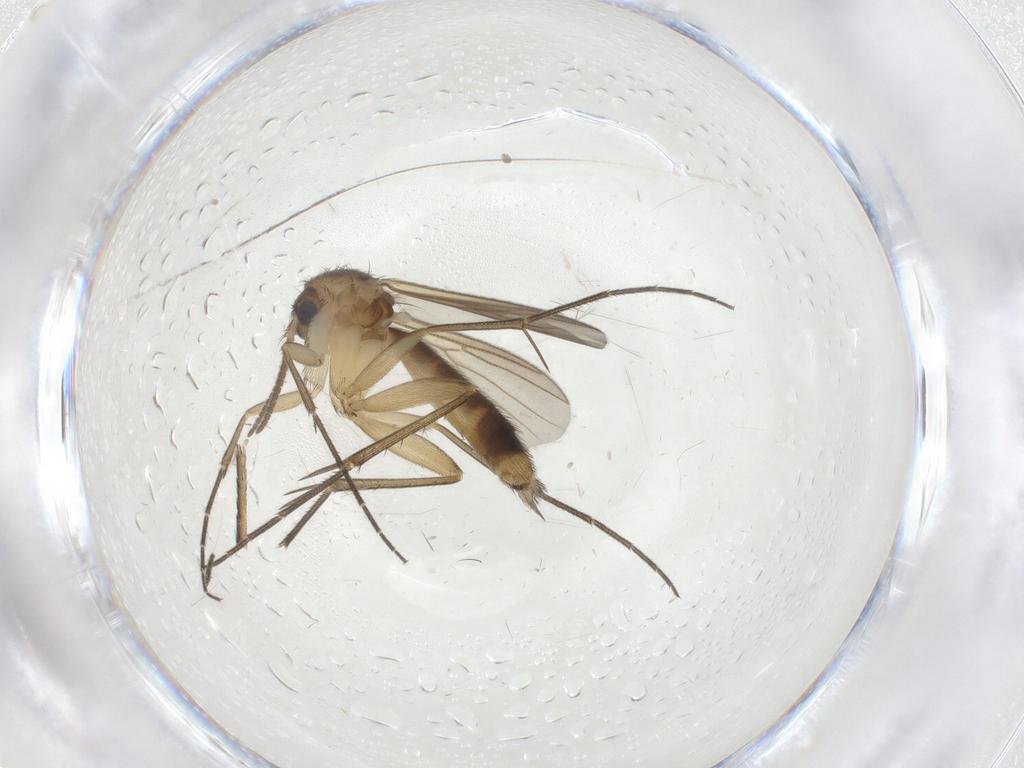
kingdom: Animalia
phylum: Arthropoda
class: Insecta
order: Diptera
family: Mycetophilidae
